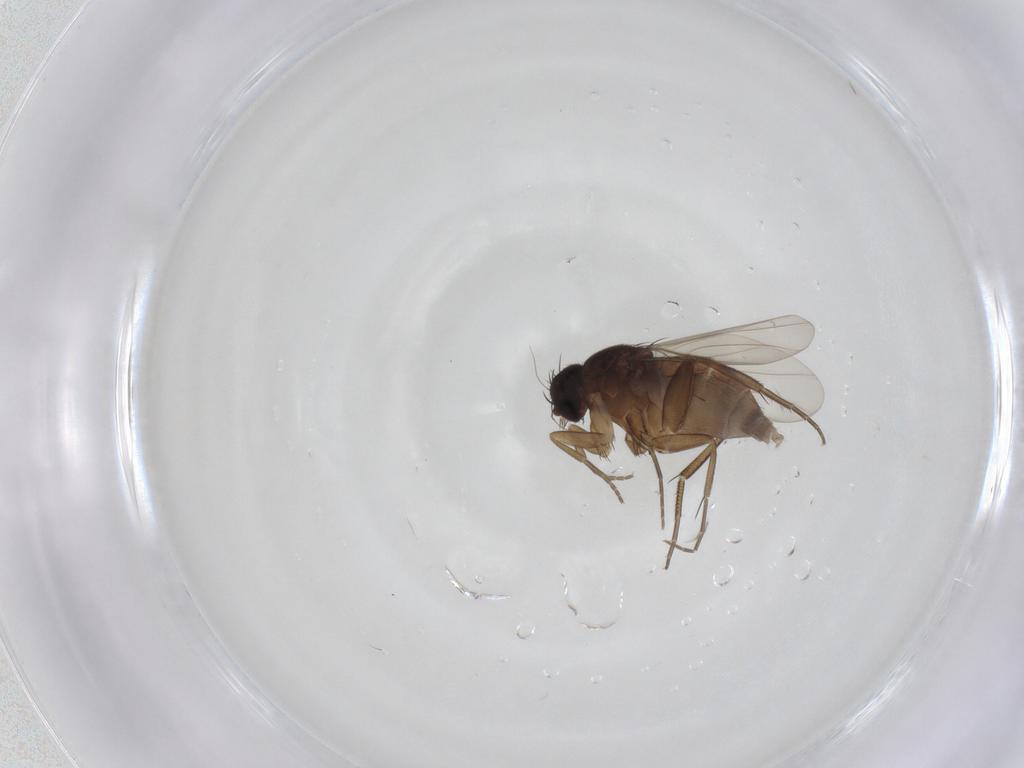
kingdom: Animalia
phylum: Arthropoda
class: Insecta
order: Diptera
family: Phoridae
